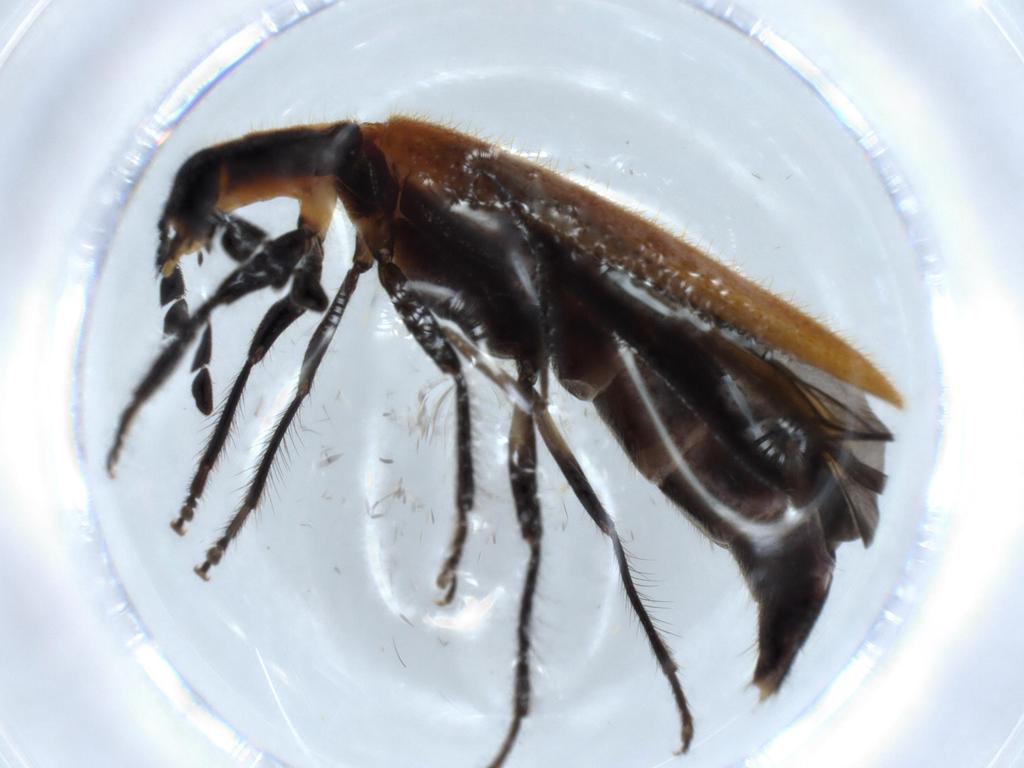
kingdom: Animalia
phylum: Arthropoda
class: Insecta
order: Coleoptera
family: Cleridae
